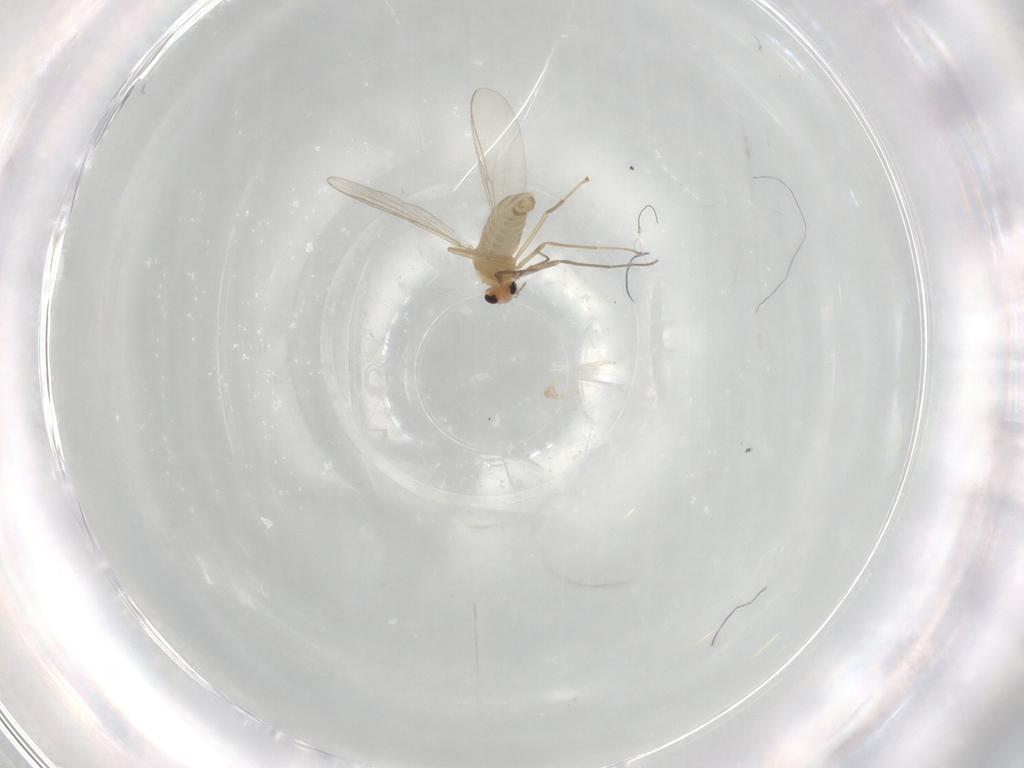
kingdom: Animalia
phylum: Arthropoda
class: Insecta
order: Diptera
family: Chironomidae
